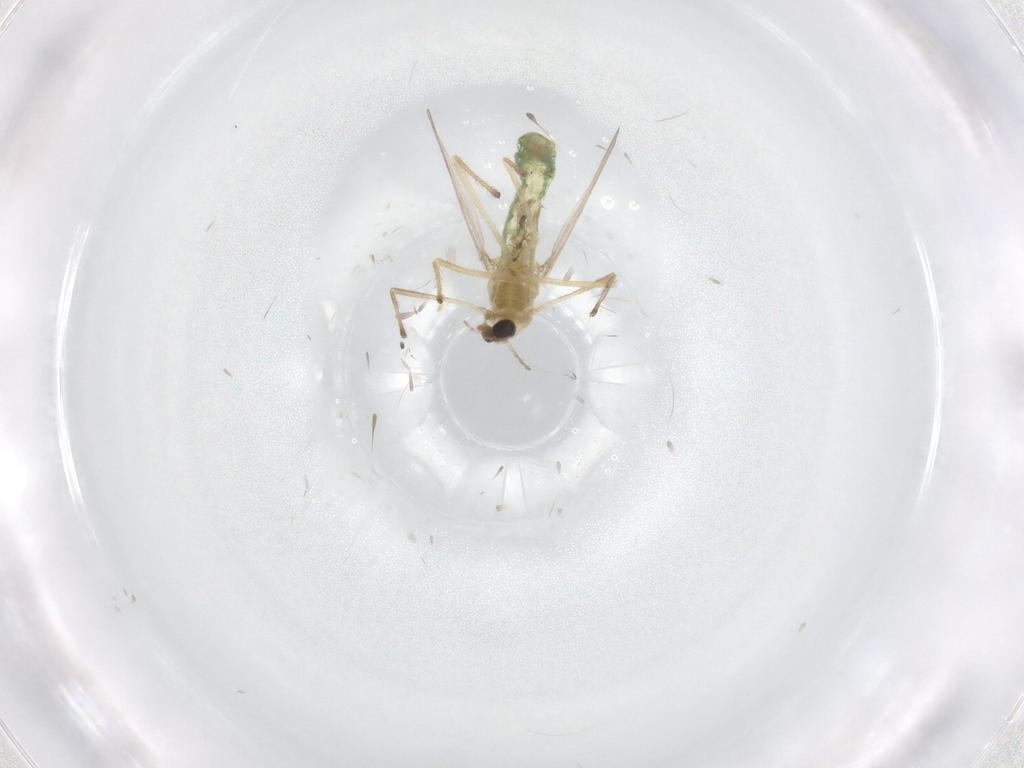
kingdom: Animalia
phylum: Arthropoda
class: Insecta
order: Diptera
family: Chironomidae
